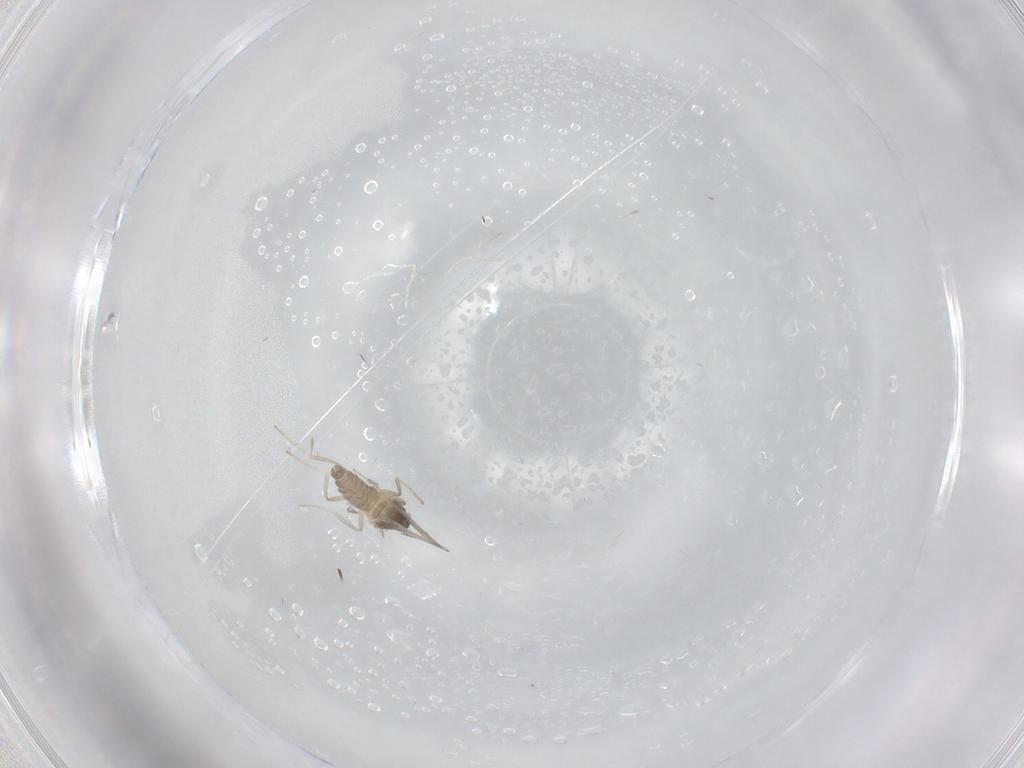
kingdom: Animalia
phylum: Arthropoda
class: Insecta
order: Diptera
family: Cecidomyiidae
